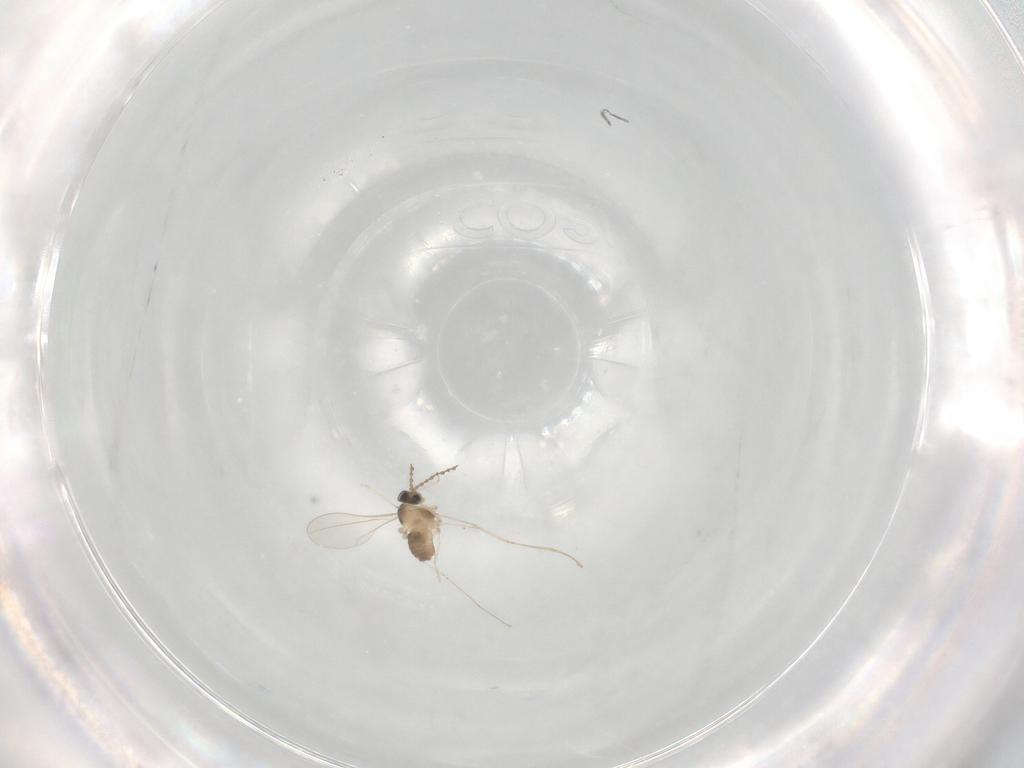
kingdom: Animalia
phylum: Arthropoda
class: Insecta
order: Diptera
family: Cecidomyiidae
